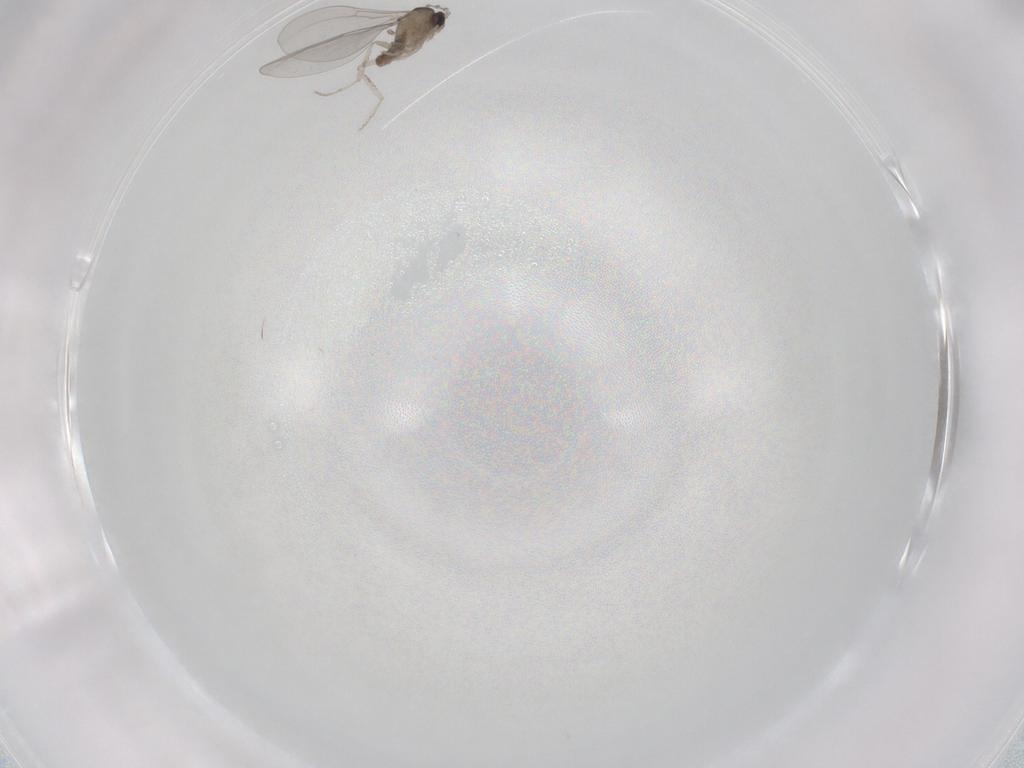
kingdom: Animalia
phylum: Arthropoda
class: Insecta
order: Diptera
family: Cecidomyiidae
